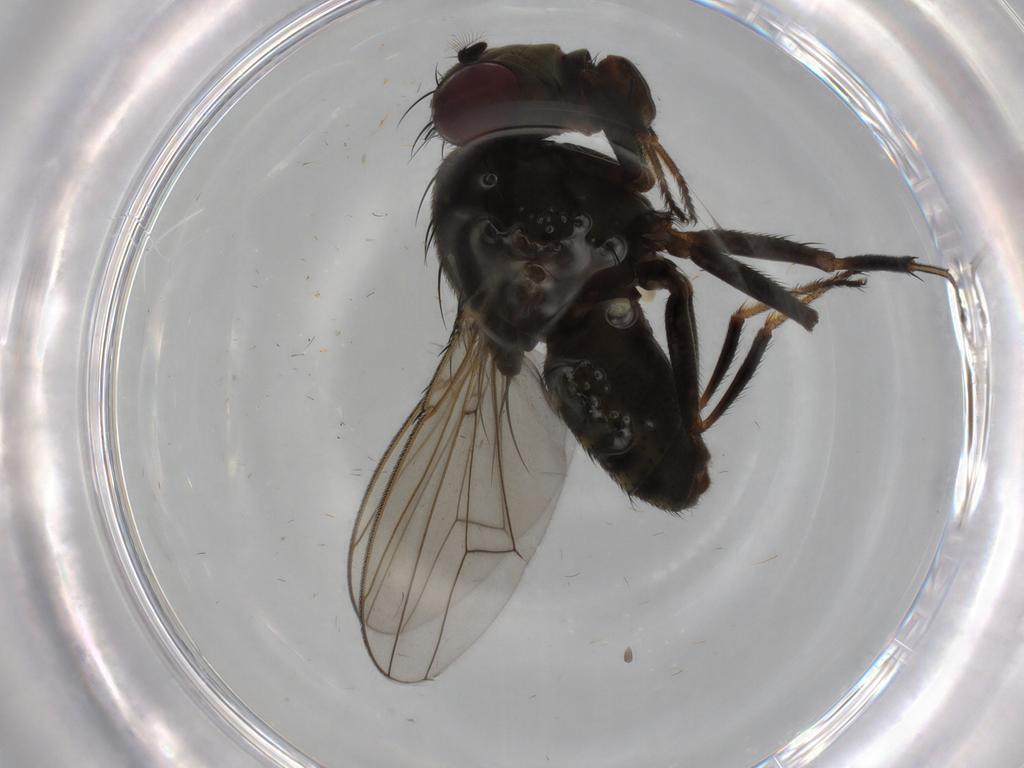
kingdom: Animalia
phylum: Arthropoda
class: Insecta
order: Diptera
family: Ephydridae
